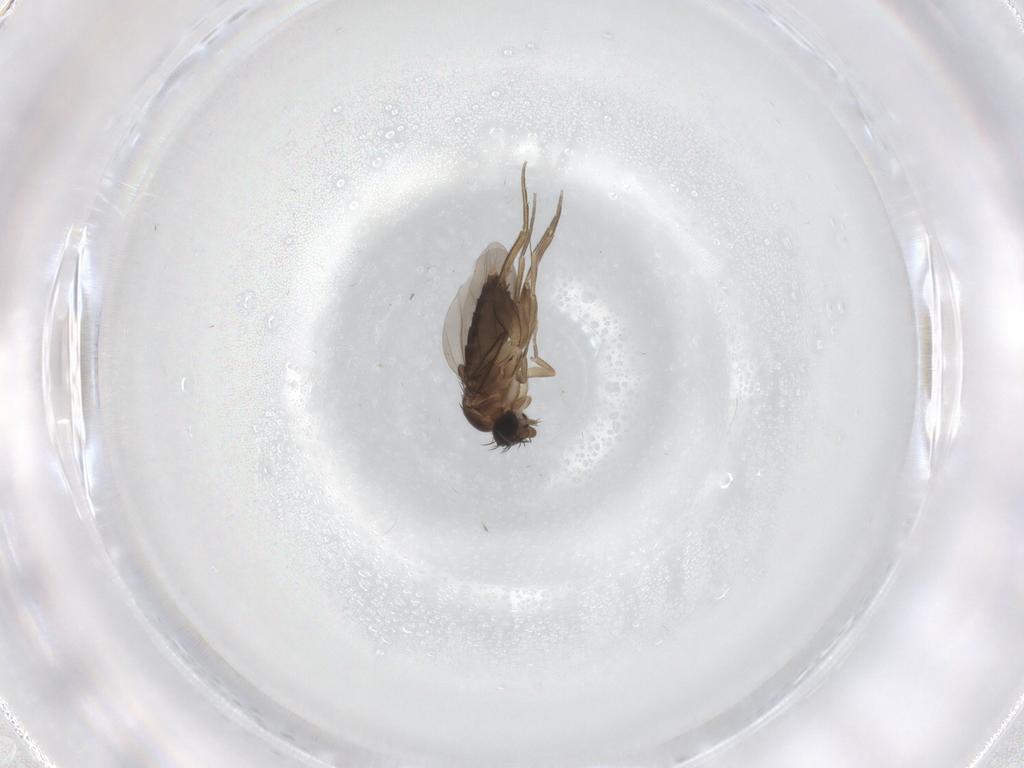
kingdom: Animalia
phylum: Arthropoda
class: Insecta
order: Diptera
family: Phoridae
